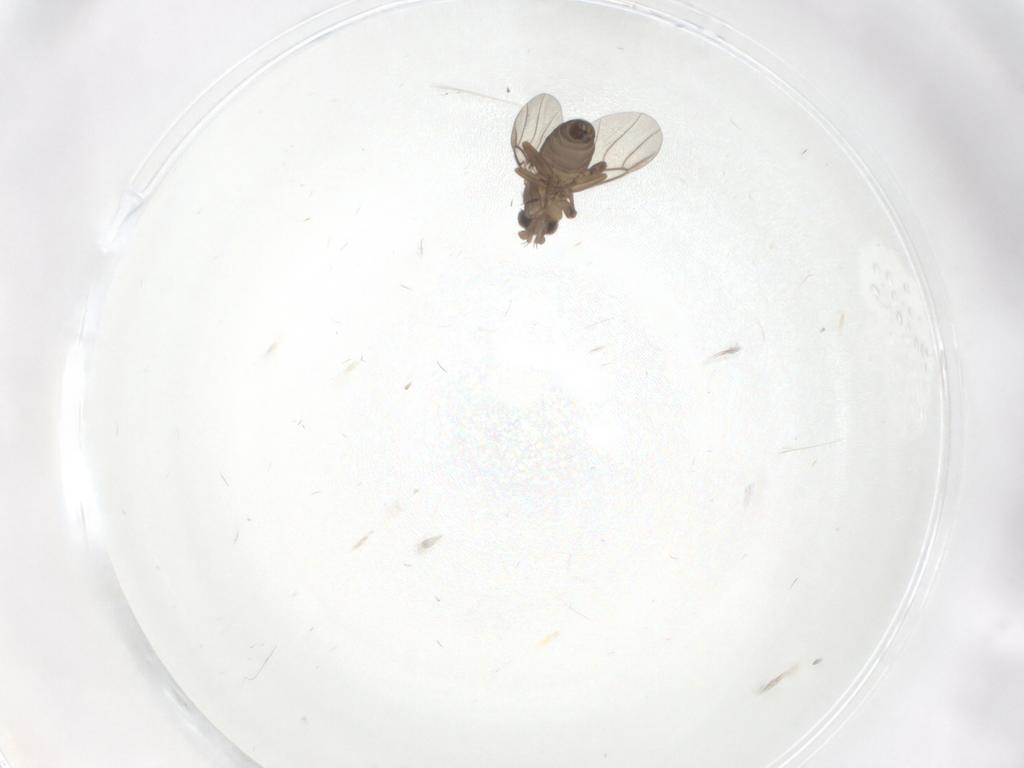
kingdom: Animalia
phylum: Arthropoda
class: Insecta
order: Diptera
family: Phoridae
